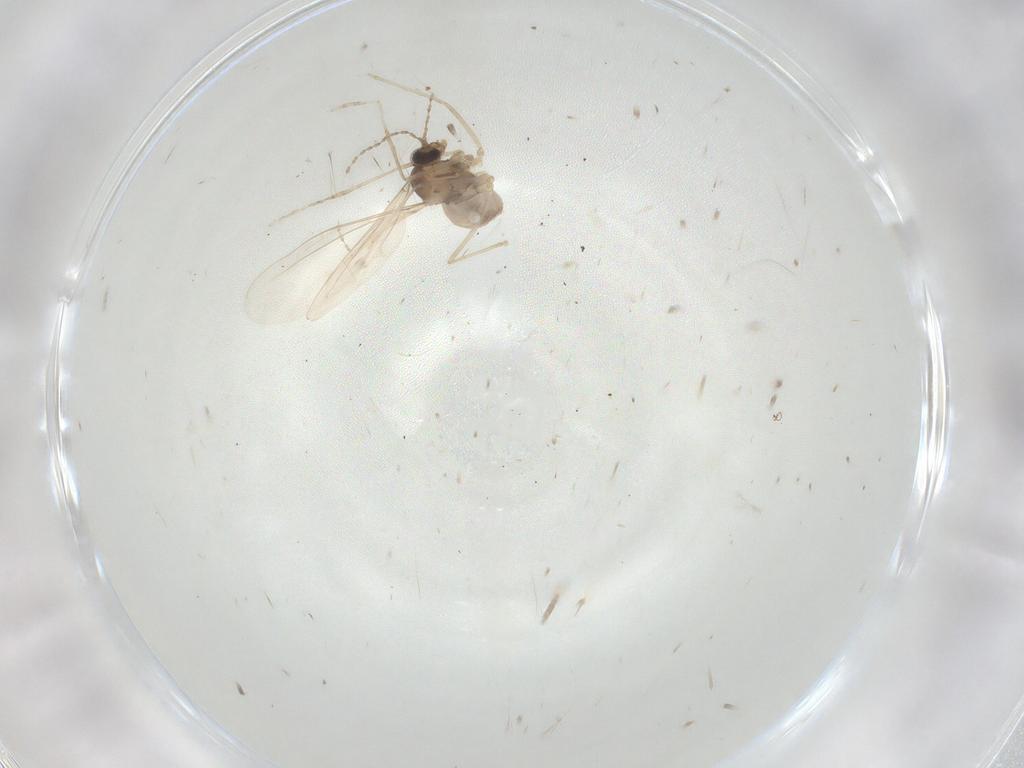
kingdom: Animalia
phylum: Arthropoda
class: Insecta
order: Diptera
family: Cecidomyiidae
